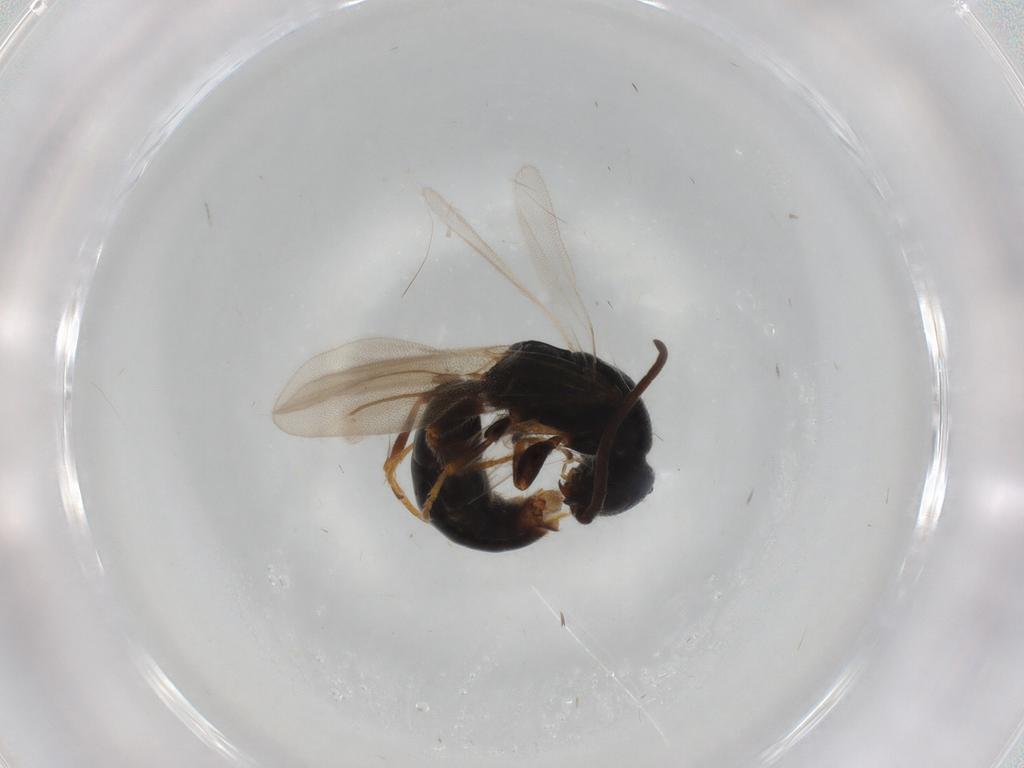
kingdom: Animalia
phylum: Arthropoda
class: Insecta
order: Hymenoptera
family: Bethylidae
